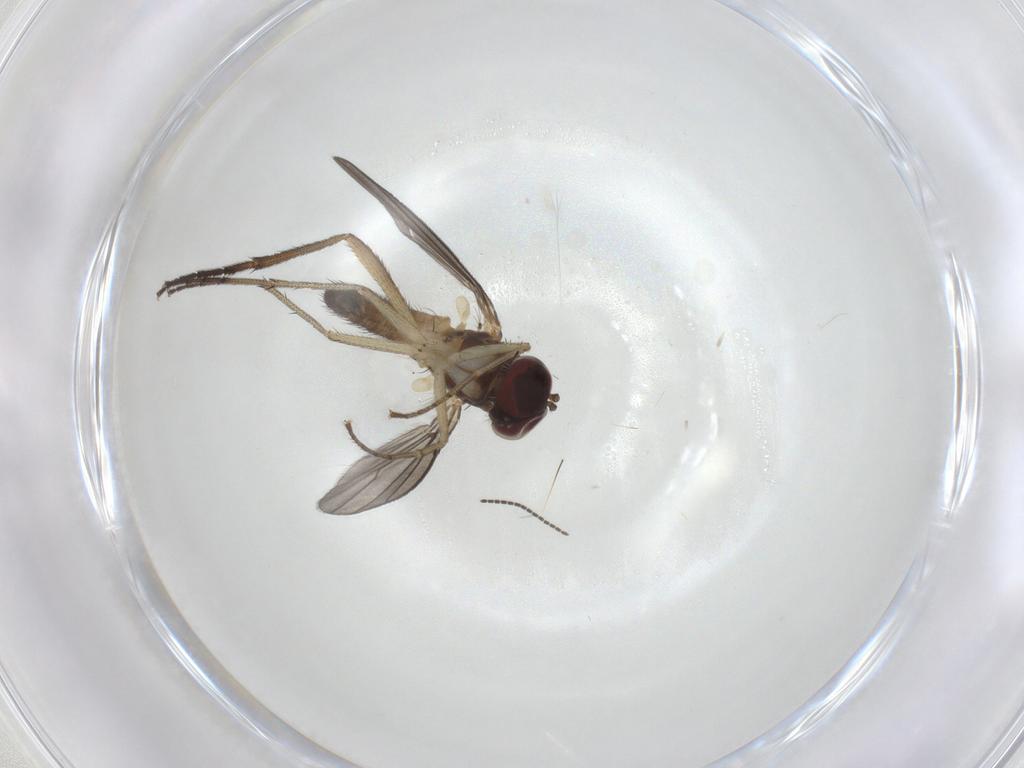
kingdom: Animalia
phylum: Arthropoda
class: Insecta
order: Diptera
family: Dolichopodidae
